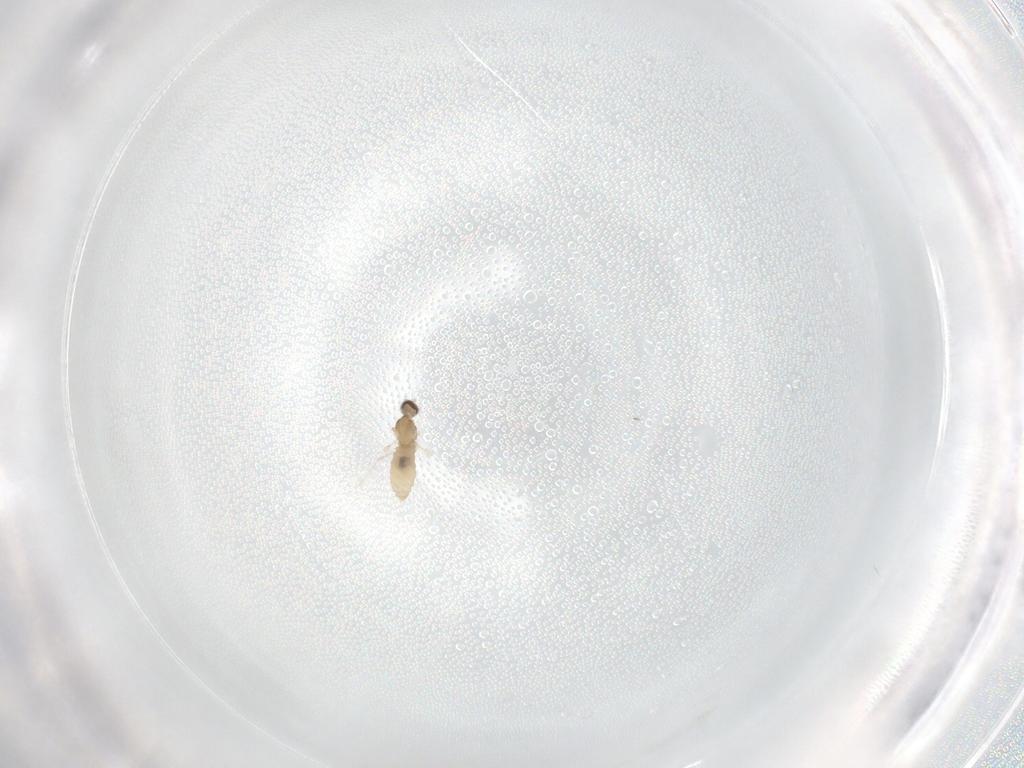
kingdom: Animalia
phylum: Arthropoda
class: Insecta
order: Diptera
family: Cecidomyiidae
